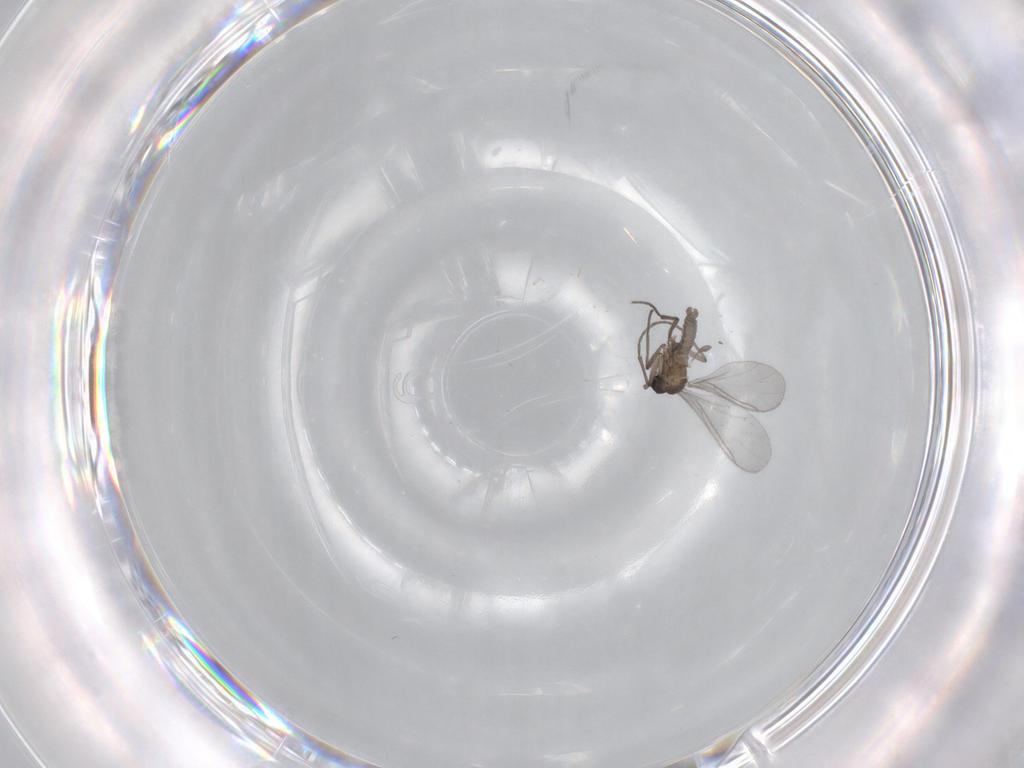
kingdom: Animalia
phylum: Arthropoda
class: Insecta
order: Diptera
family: Sciaridae
